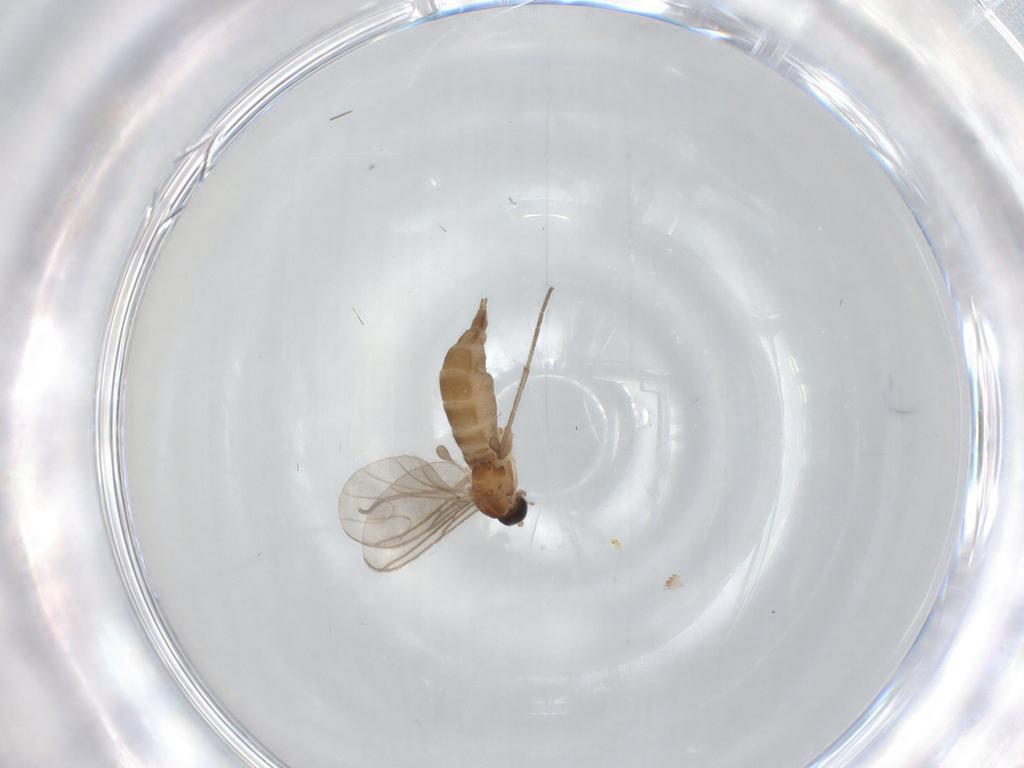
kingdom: Animalia
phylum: Arthropoda
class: Insecta
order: Diptera
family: Sciaridae
